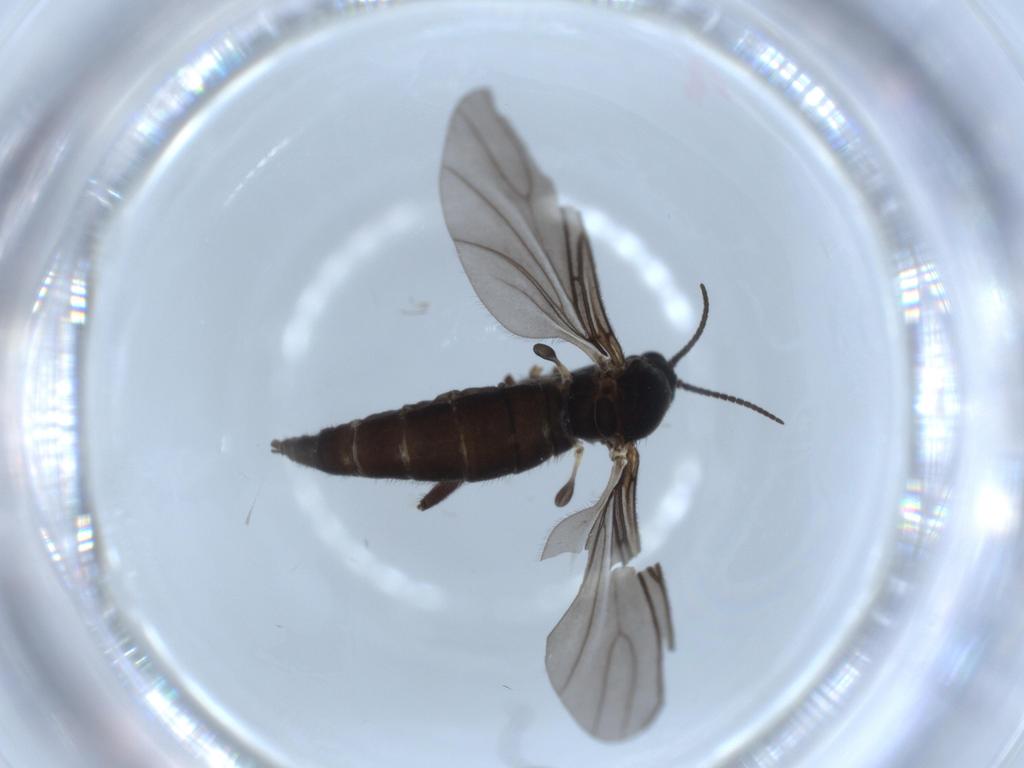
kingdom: Animalia
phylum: Arthropoda
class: Insecta
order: Diptera
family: Sciaridae
